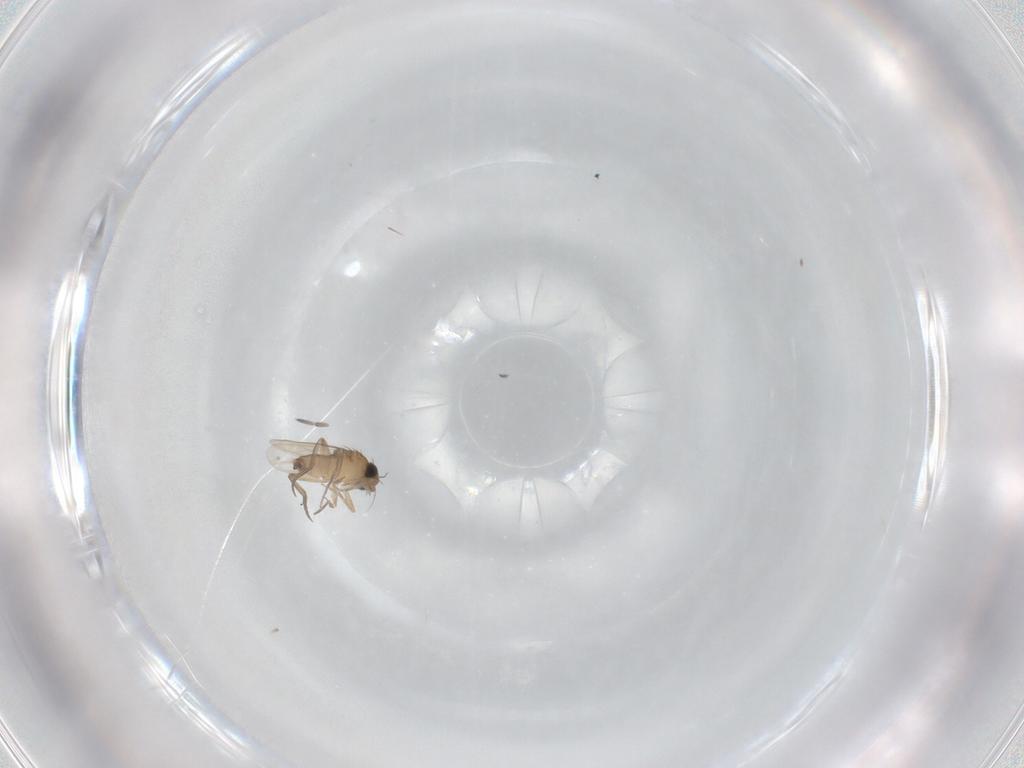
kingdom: Animalia
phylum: Arthropoda
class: Insecta
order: Diptera
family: Phoridae
